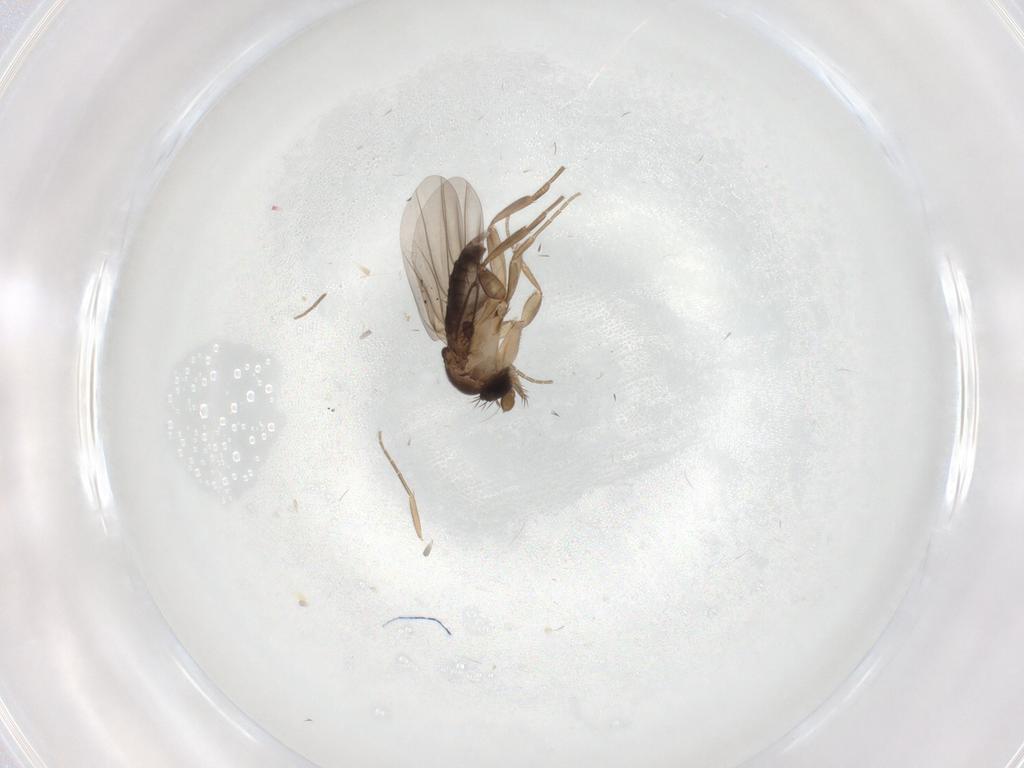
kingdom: Animalia
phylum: Arthropoda
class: Insecta
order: Diptera
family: Chironomidae
